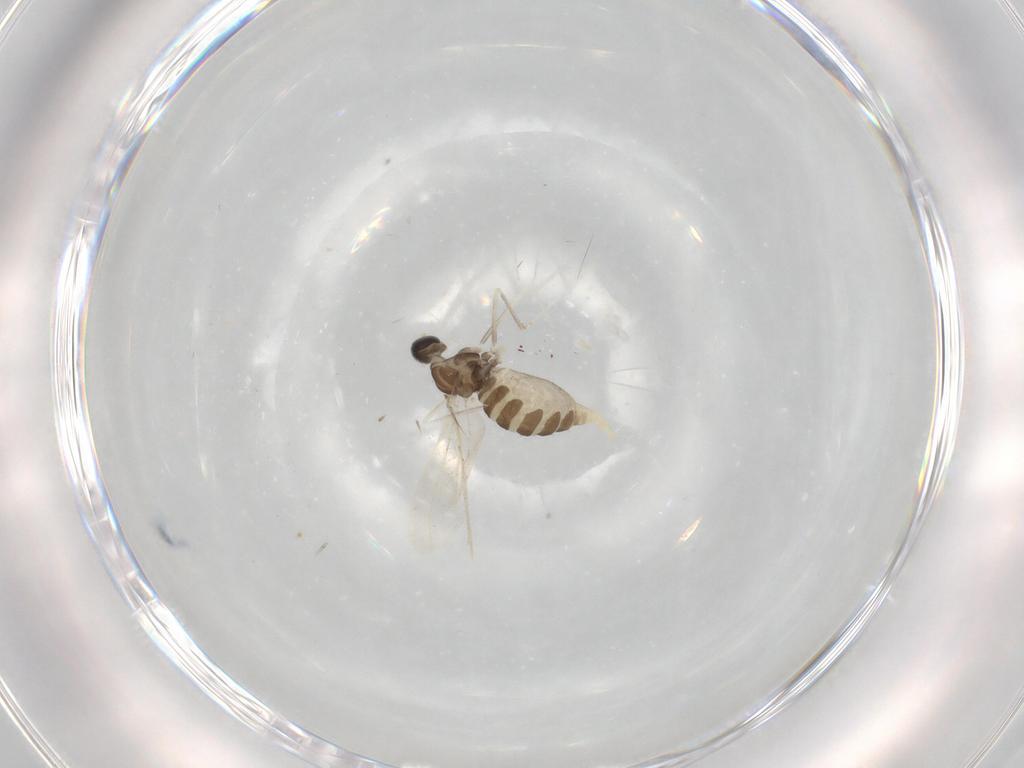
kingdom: Animalia
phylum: Arthropoda
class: Insecta
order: Diptera
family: Cecidomyiidae
